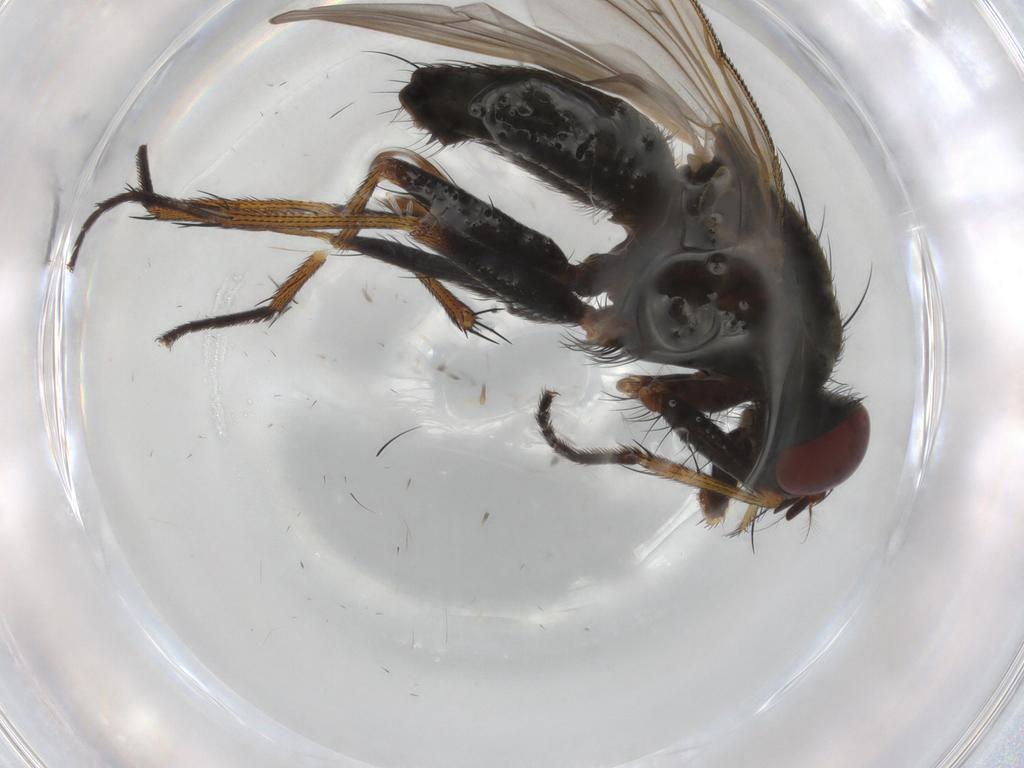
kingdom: Animalia
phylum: Arthropoda
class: Insecta
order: Diptera
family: Muscidae
